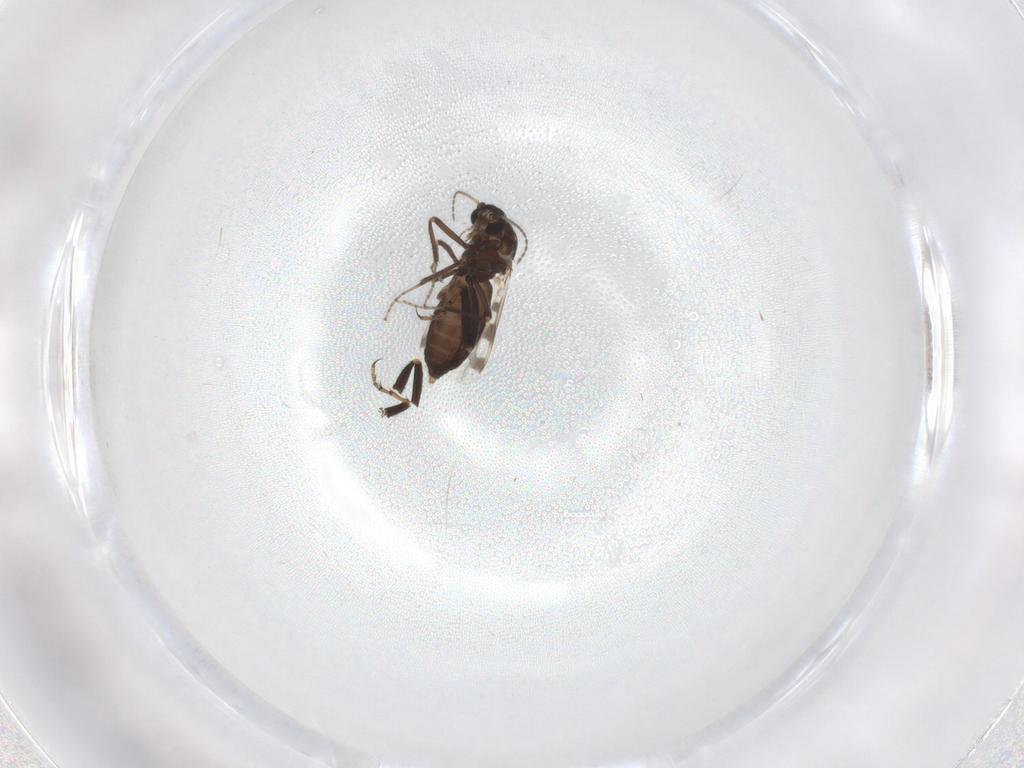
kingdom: Animalia
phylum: Arthropoda
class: Insecta
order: Diptera
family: Ceratopogonidae
